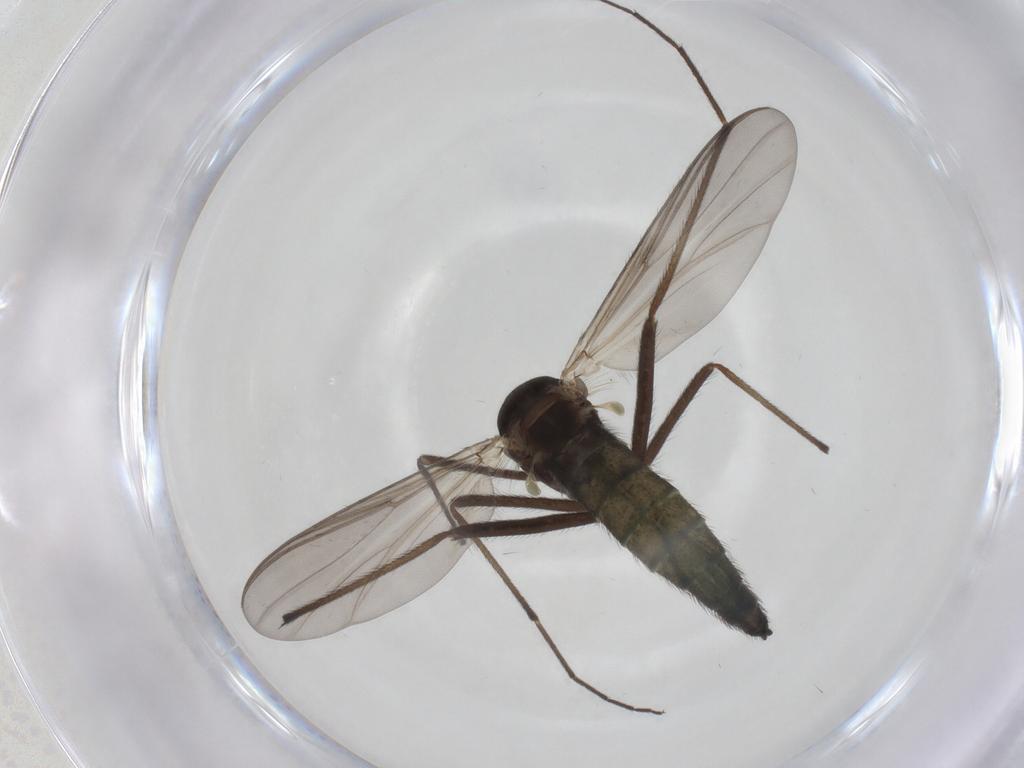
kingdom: Animalia
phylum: Arthropoda
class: Insecta
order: Diptera
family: Chironomidae
